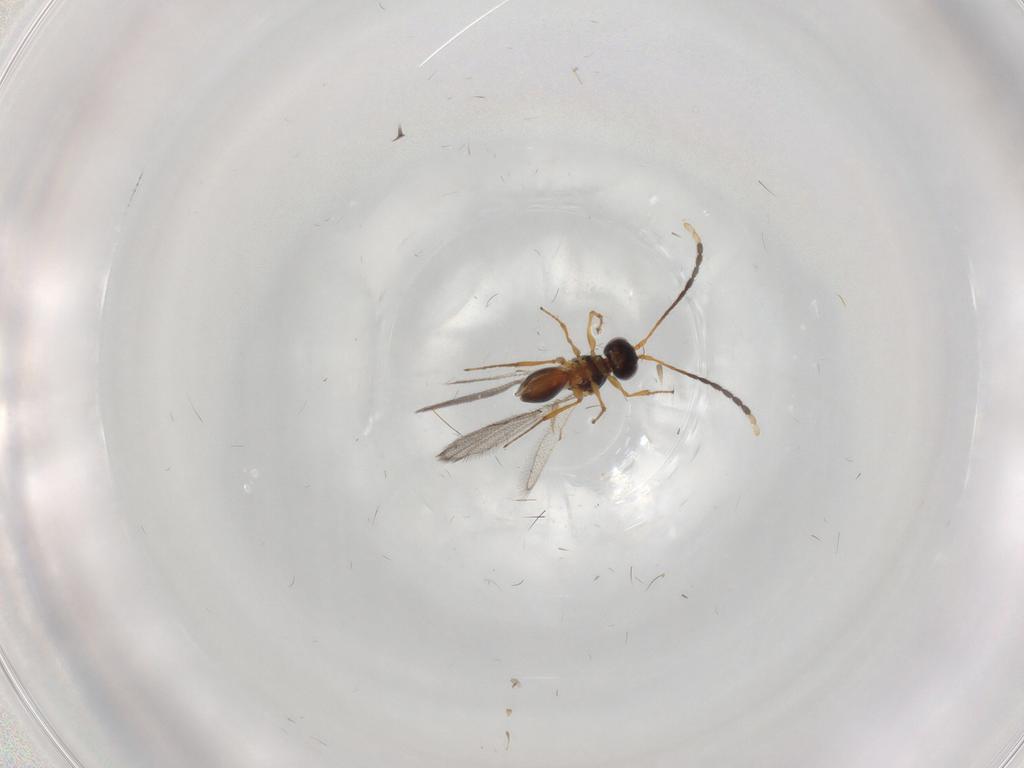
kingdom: Animalia
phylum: Arthropoda
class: Insecta
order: Hymenoptera
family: Figitidae
